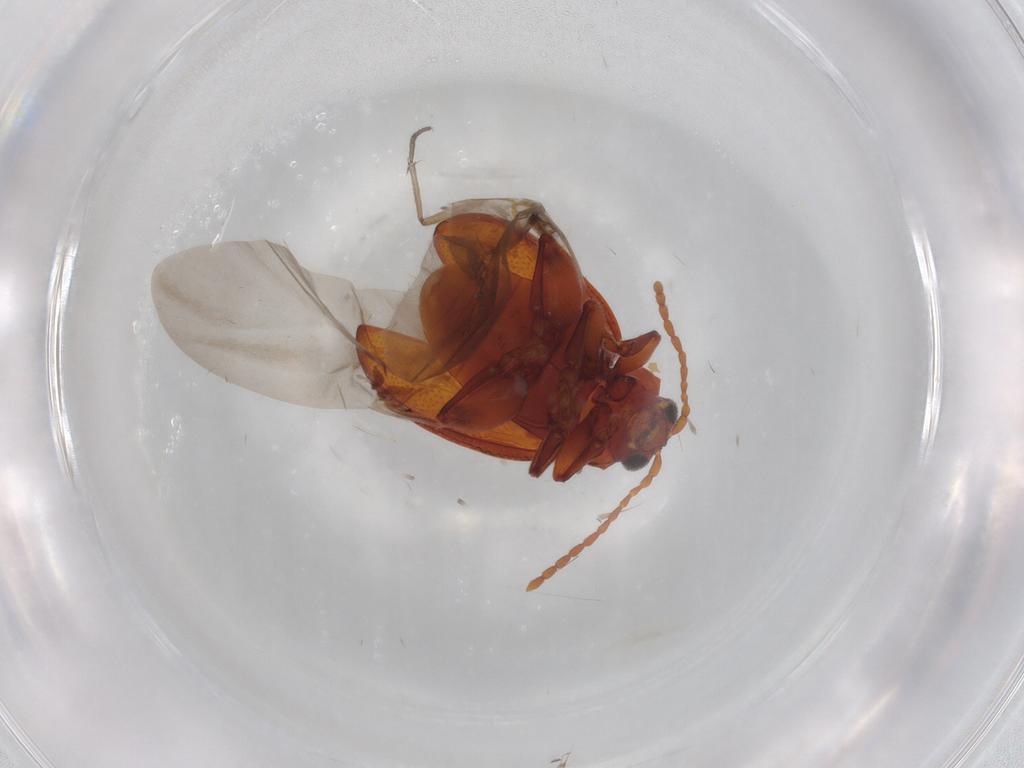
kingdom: Animalia
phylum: Arthropoda
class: Insecta
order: Coleoptera
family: Chrysomelidae
